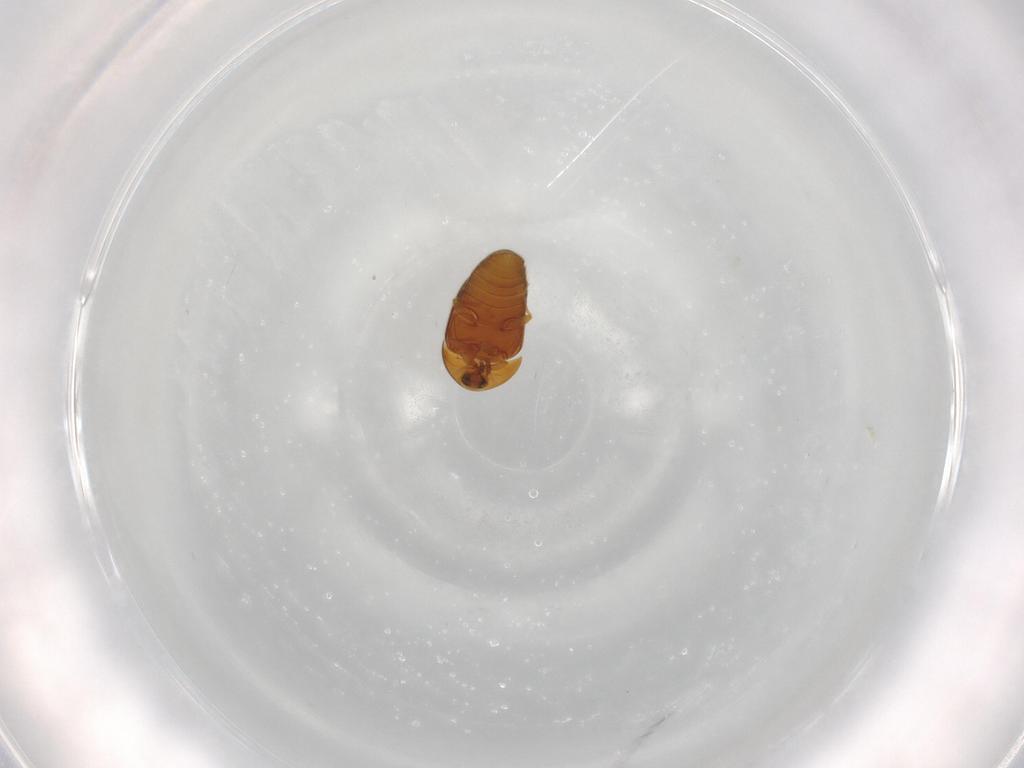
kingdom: Animalia
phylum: Arthropoda
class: Insecta
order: Coleoptera
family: Corylophidae
